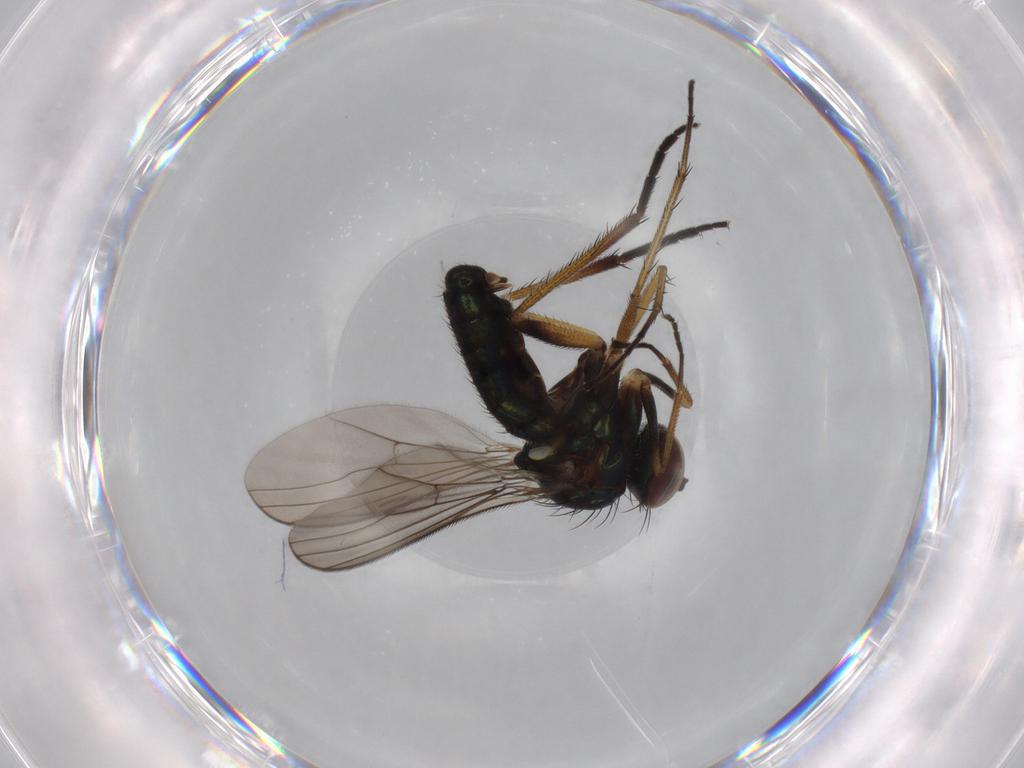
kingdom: Animalia
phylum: Arthropoda
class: Insecta
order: Diptera
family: Dolichopodidae
